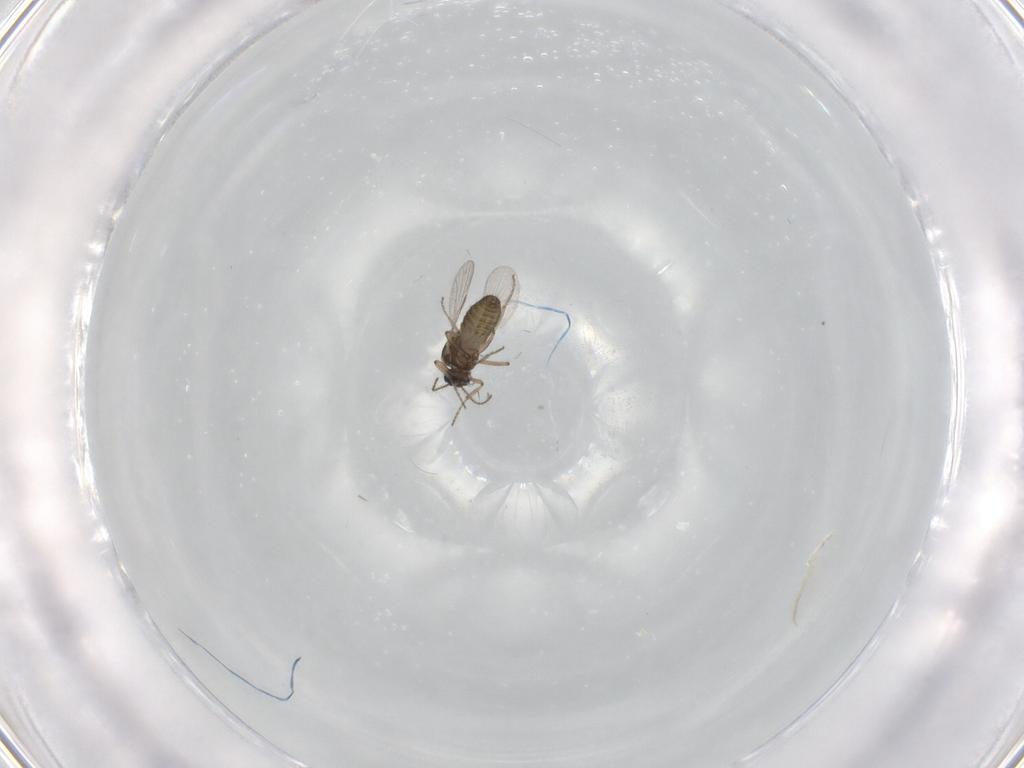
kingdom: Animalia
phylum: Arthropoda
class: Insecta
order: Diptera
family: Ceratopogonidae
